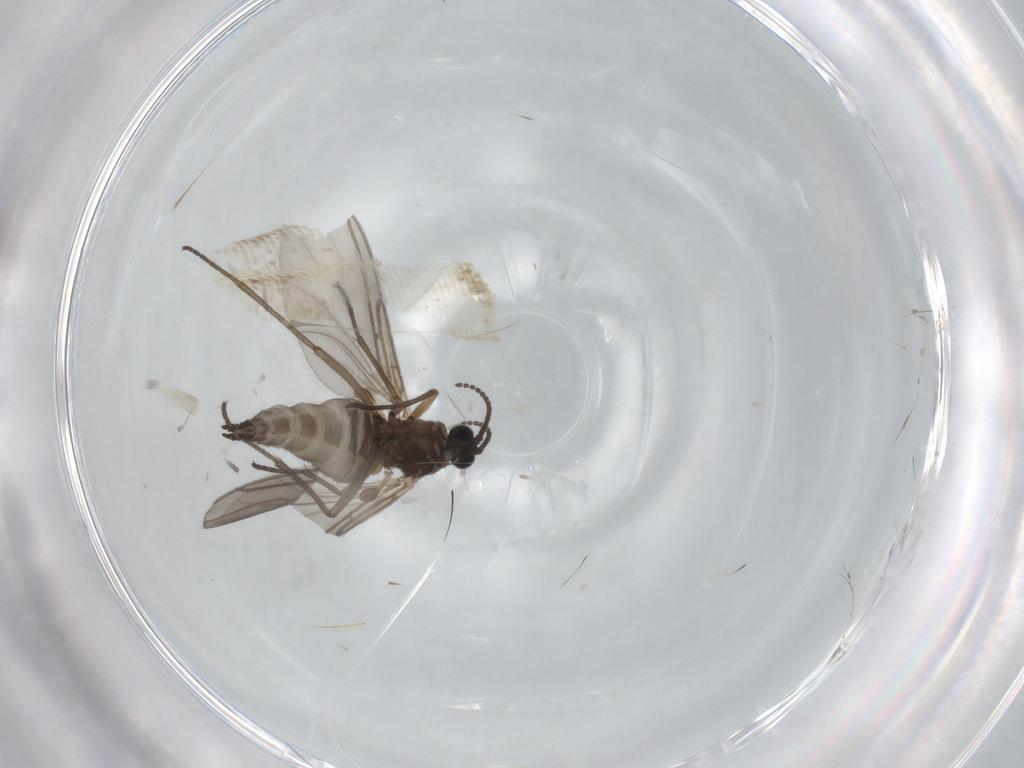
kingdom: Animalia
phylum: Arthropoda
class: Insecta
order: Diptera
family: Sciaridae
